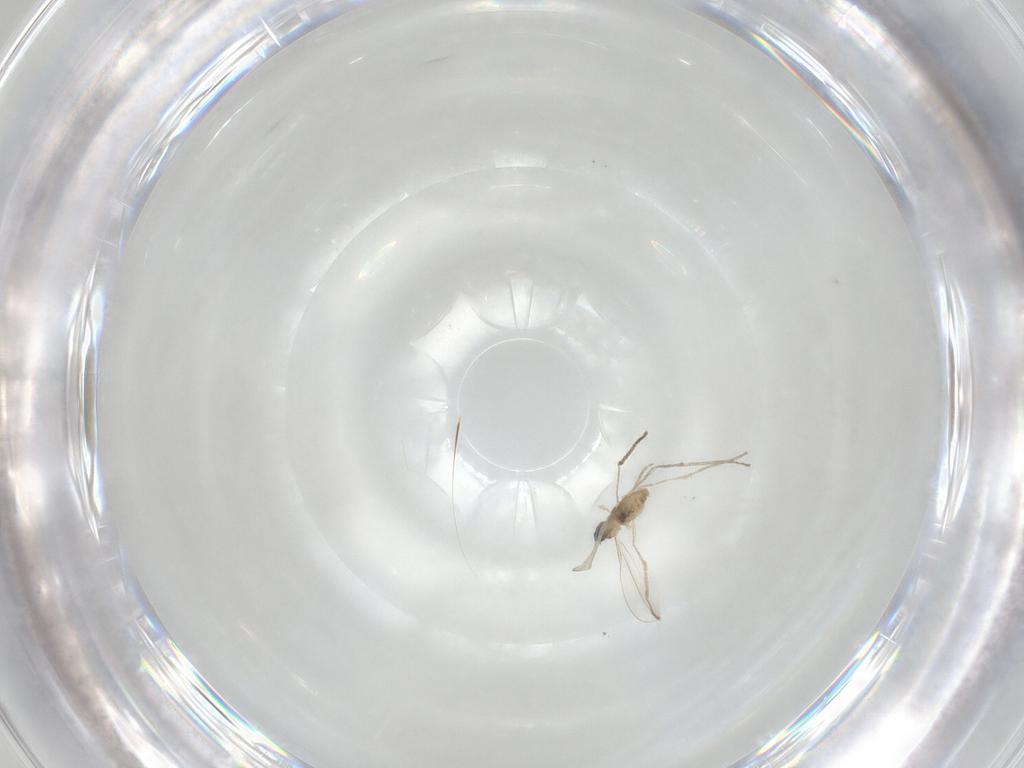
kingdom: Animalia
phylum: Arthropoda
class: Insecta
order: Diptera
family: Cecidomyiidae
